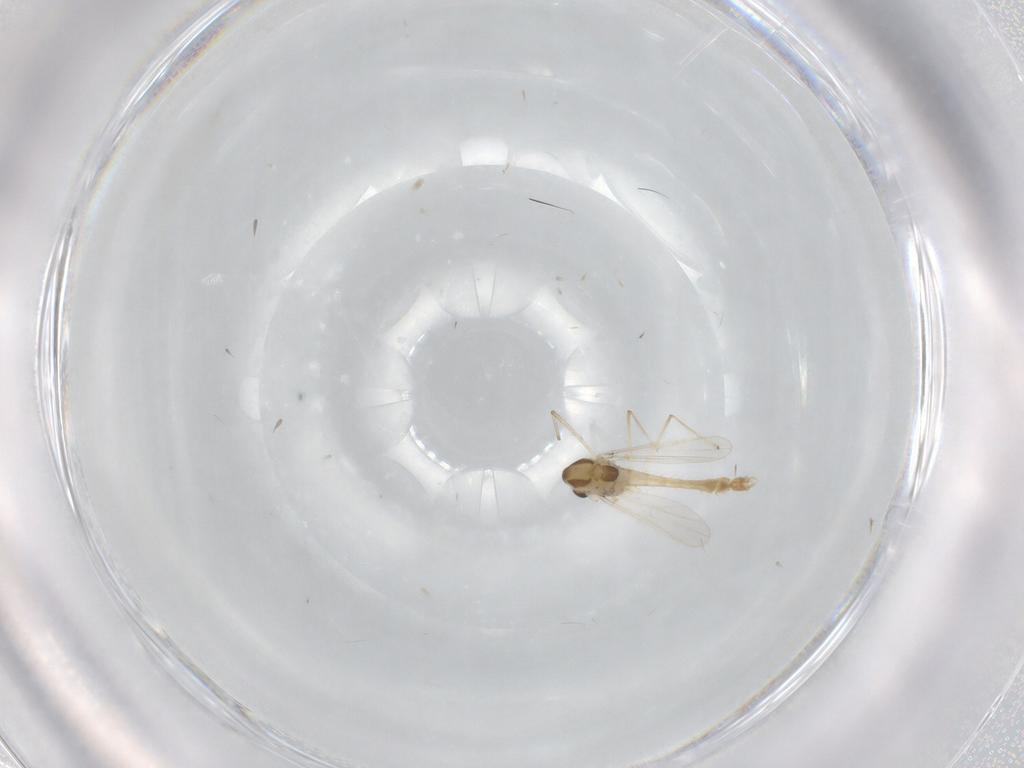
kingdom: Animalia
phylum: Arthropoda
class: Insecta
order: Diptera
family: Chironomidae
